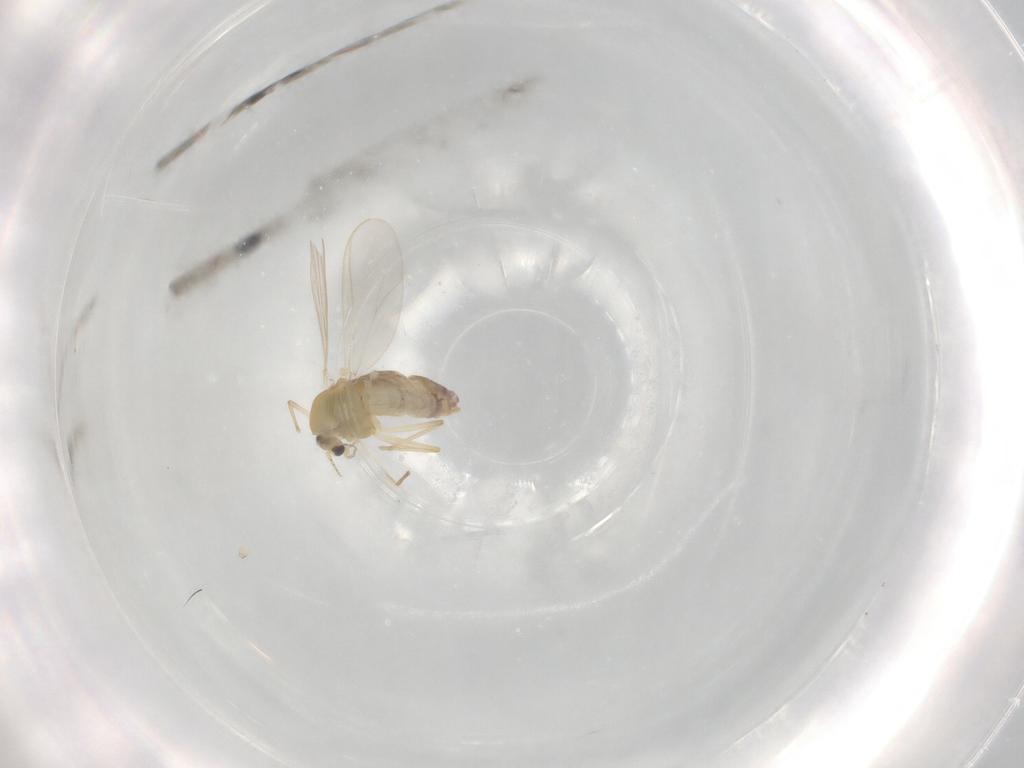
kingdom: Animalia
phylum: Arthropoda
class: Insecta
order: Diptera
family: Chironomidae
